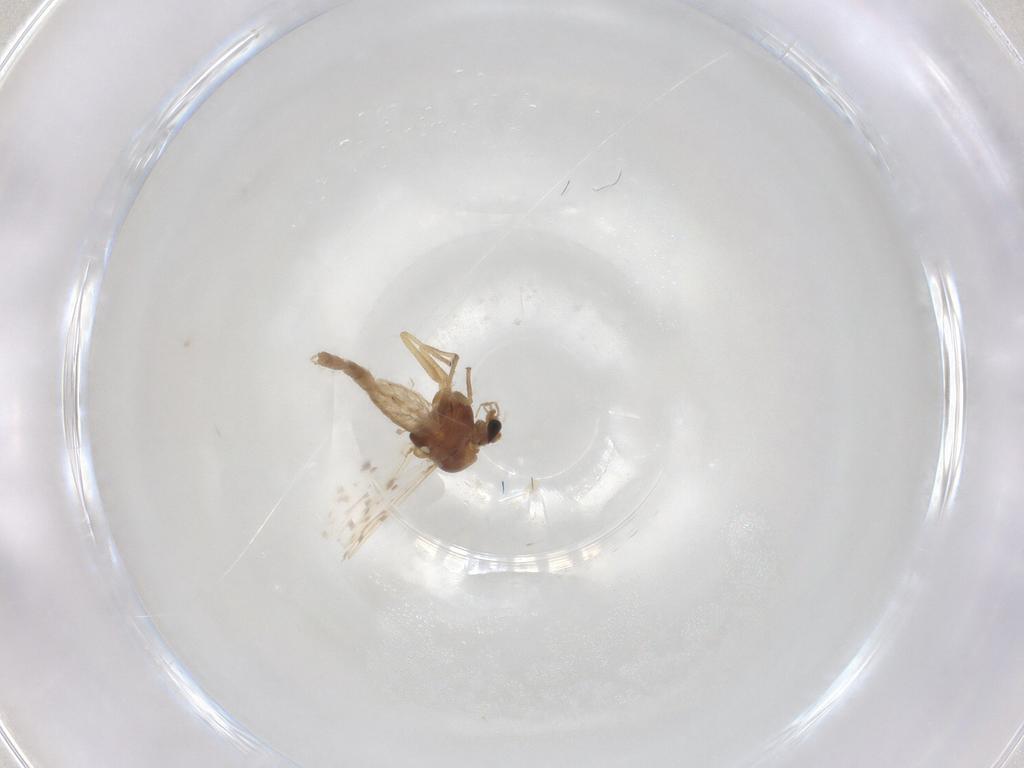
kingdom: Animalia
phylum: Arthropoda
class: Insecta
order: Diptera
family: Chironomidae
